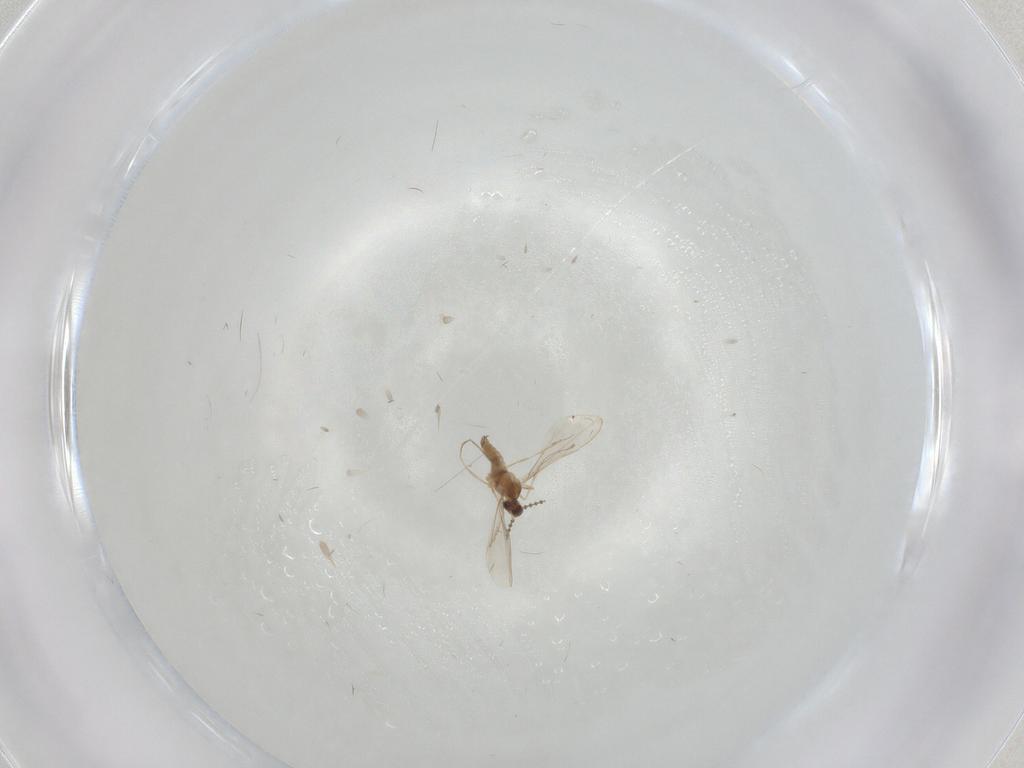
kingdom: Animalia
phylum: Arthropoda
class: Insecta
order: Diptera
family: Cecidomyiidae
